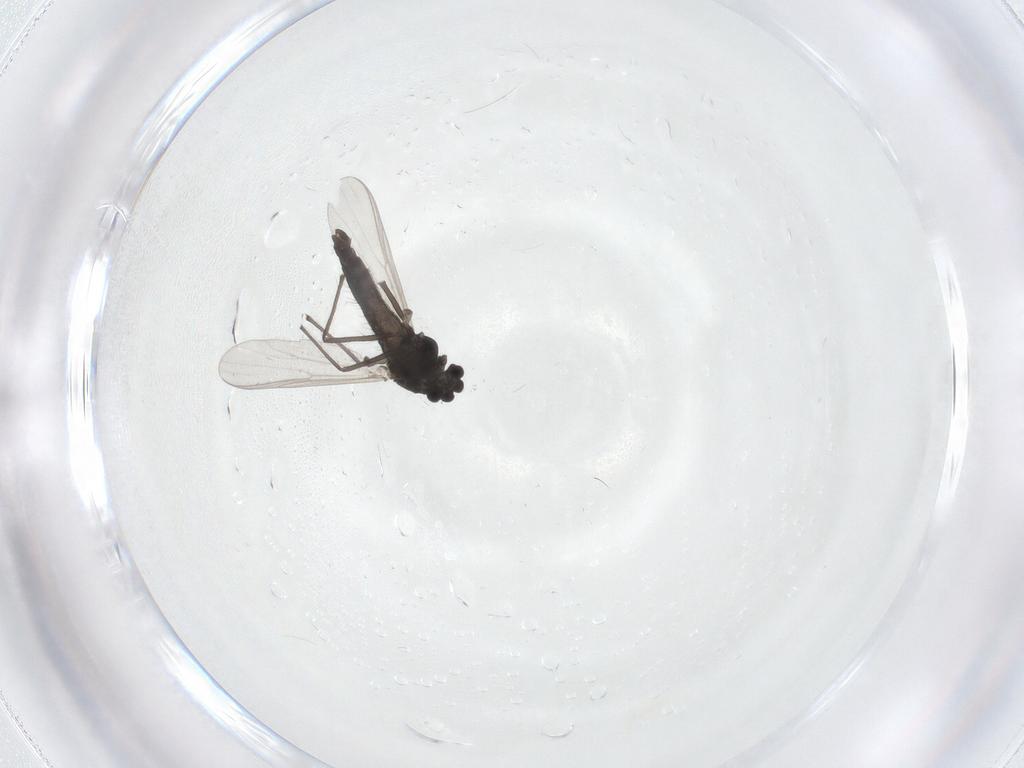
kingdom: Animalia
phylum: Arthropoda
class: Insecta
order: Diptera
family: Chironomidae
